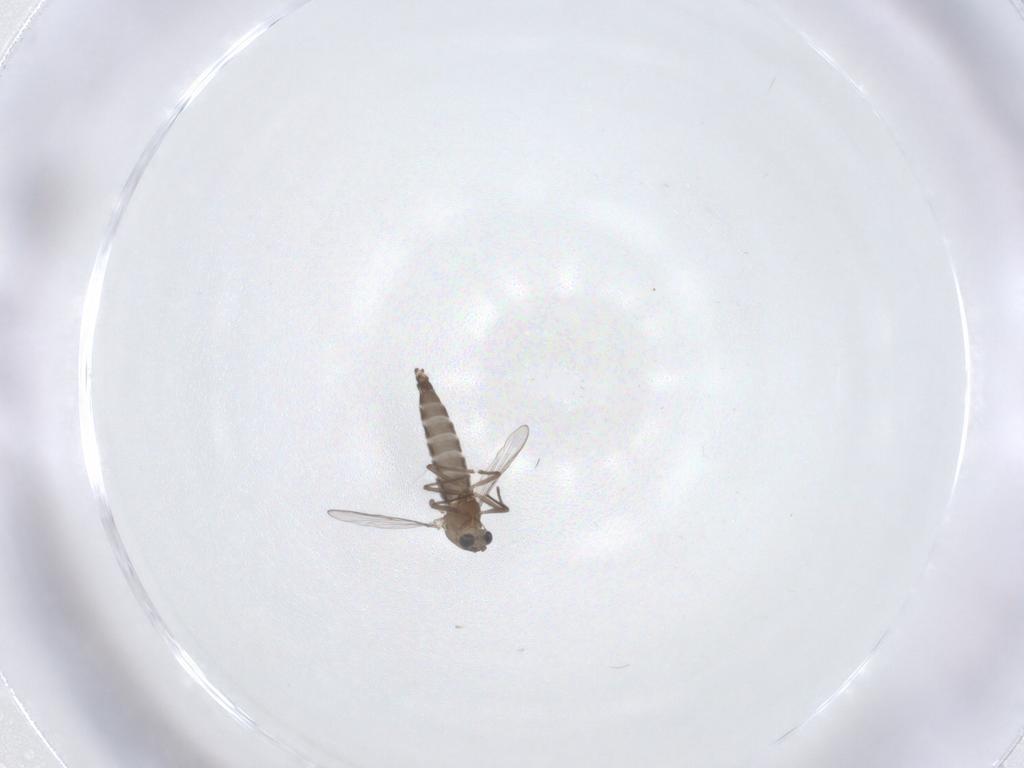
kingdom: Animalia
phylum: Arthropoda
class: Insecta
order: Diptera
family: Chironomidae
